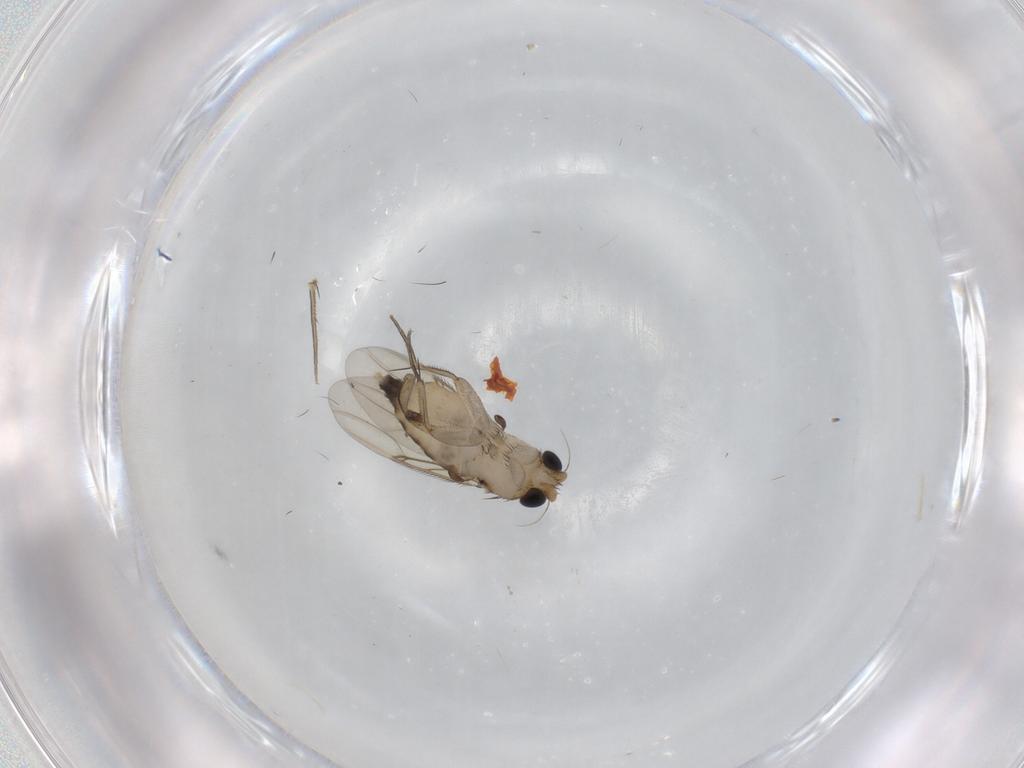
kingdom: Animalia
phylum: Arthropoda
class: Insecta
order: Diptera
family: Phoridae
